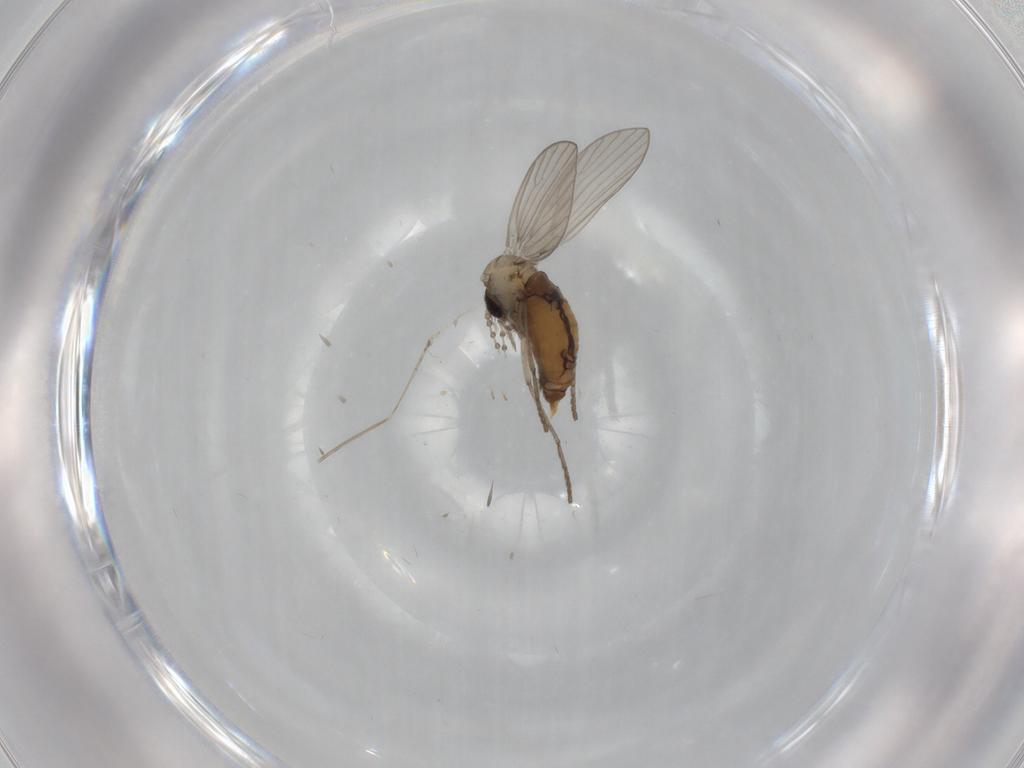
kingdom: Animalia
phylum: Arthropoda
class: Insecta
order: Diptera
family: Psychodidae
